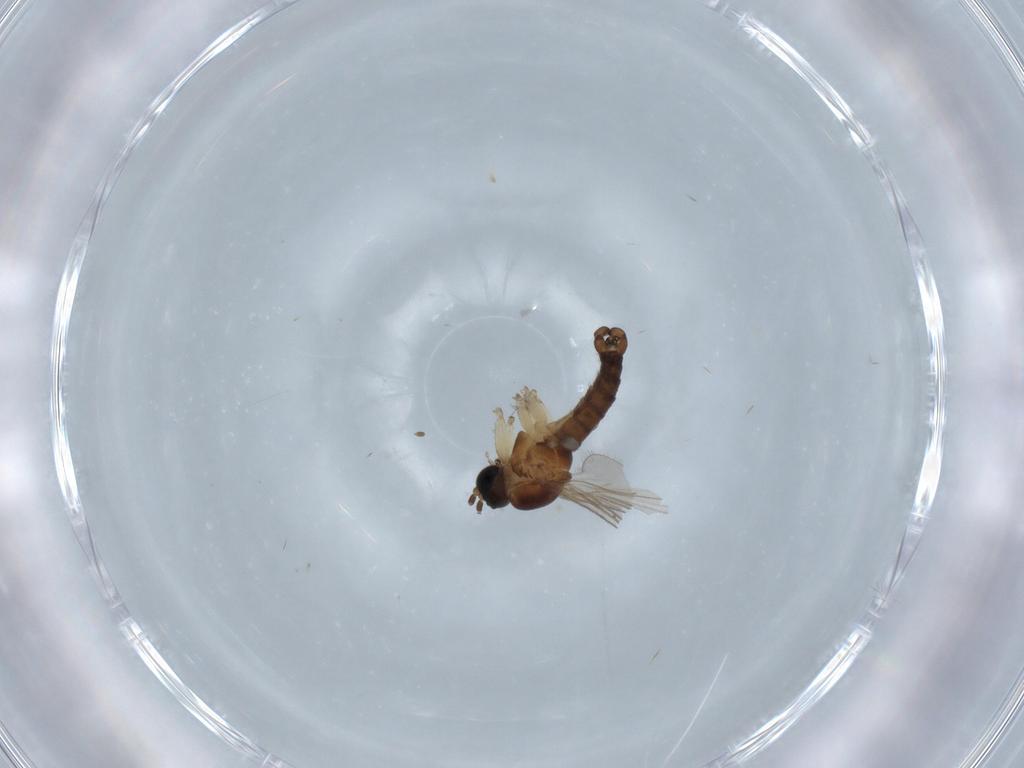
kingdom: Animalia
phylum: Arthropoda
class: Insecta
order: Diptera
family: Sciaridae
